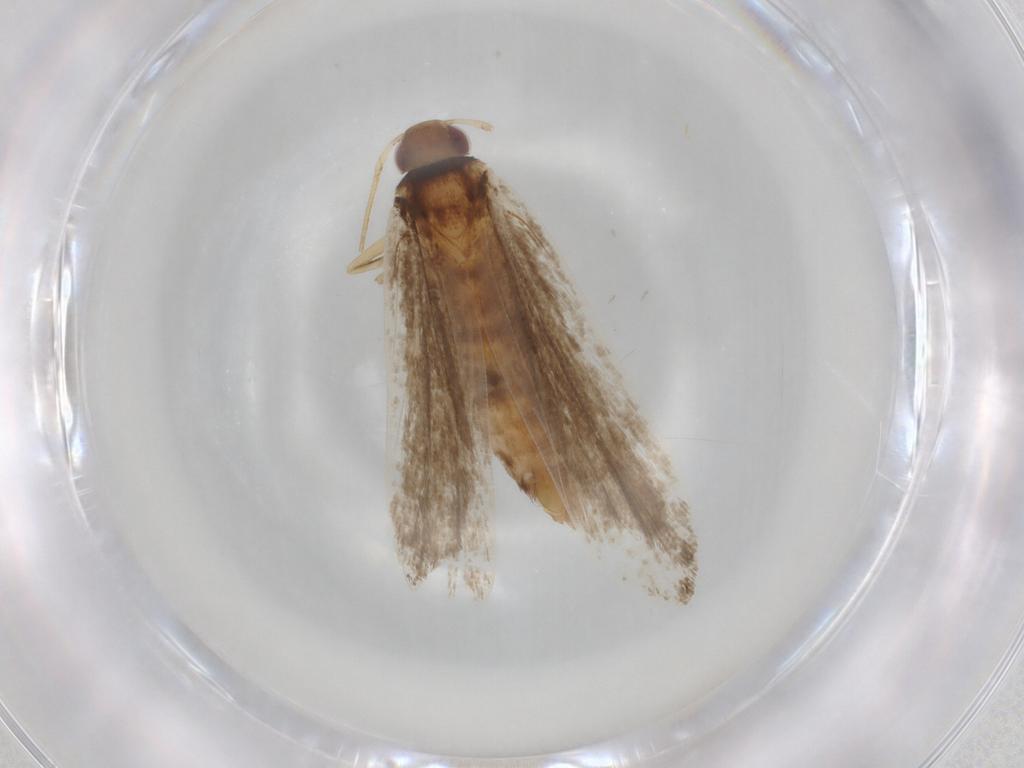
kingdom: Animalia
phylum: Arthropoda
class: Insecta
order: Lepidoptera
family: Gelechiidae
